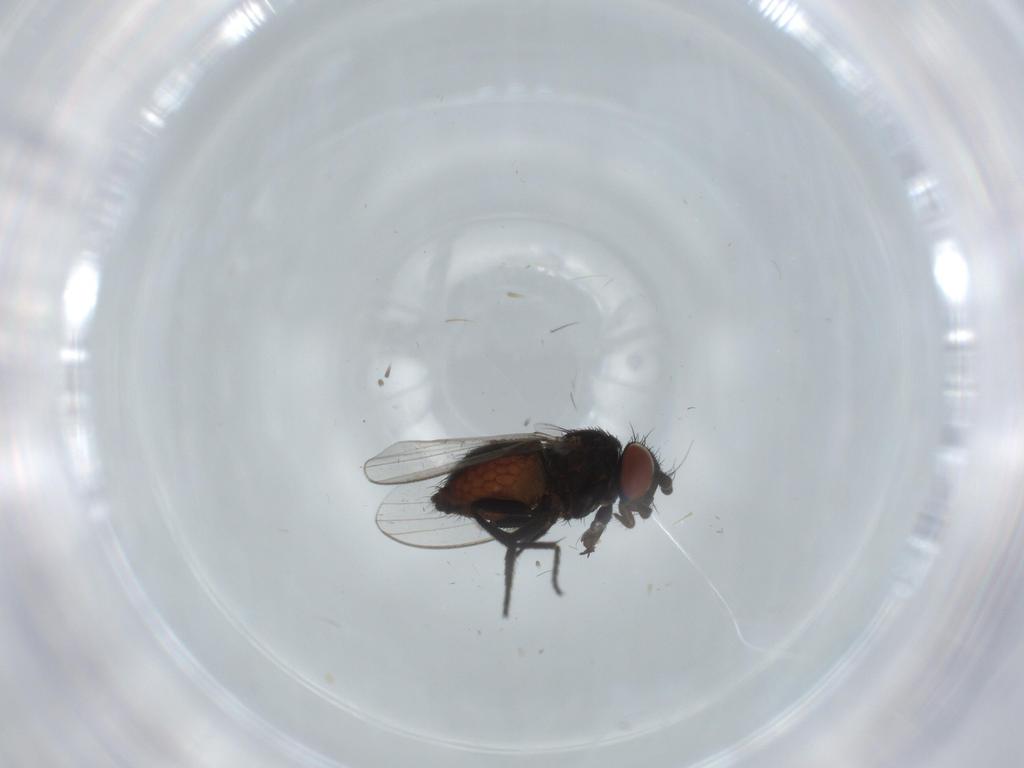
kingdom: Animalia
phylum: Arthropoda
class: Insecta
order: Diptera
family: Milichiidae
